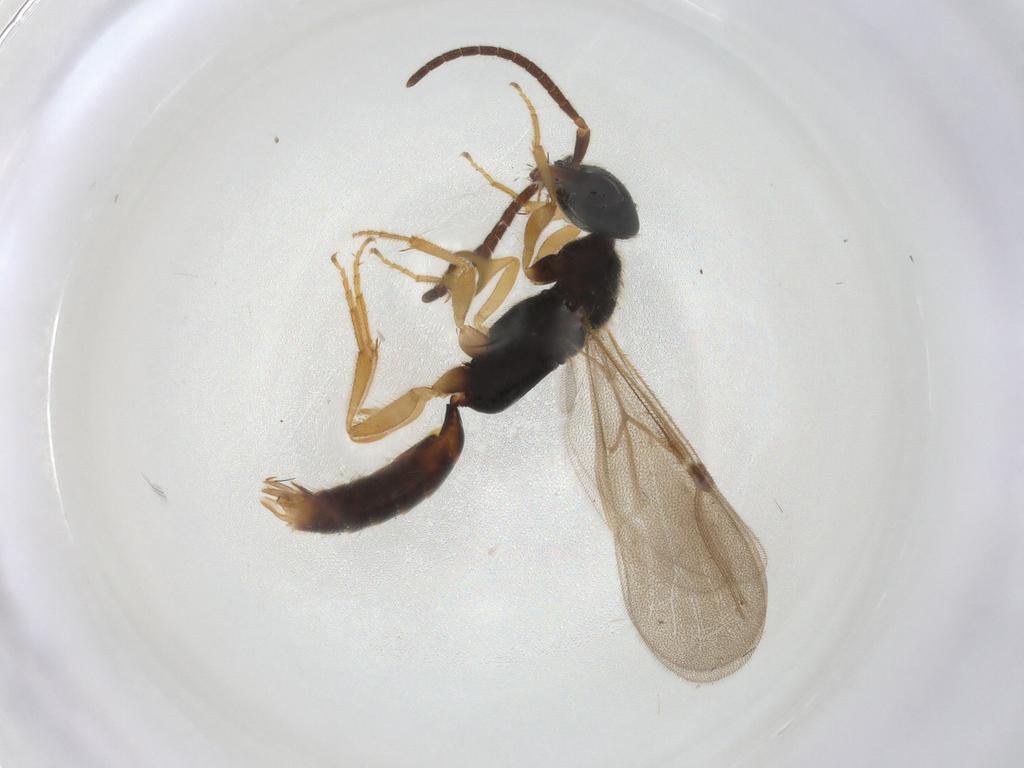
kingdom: Animalia
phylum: Arthropoda
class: Insecta
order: Hymenoptera
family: Bethylidae
